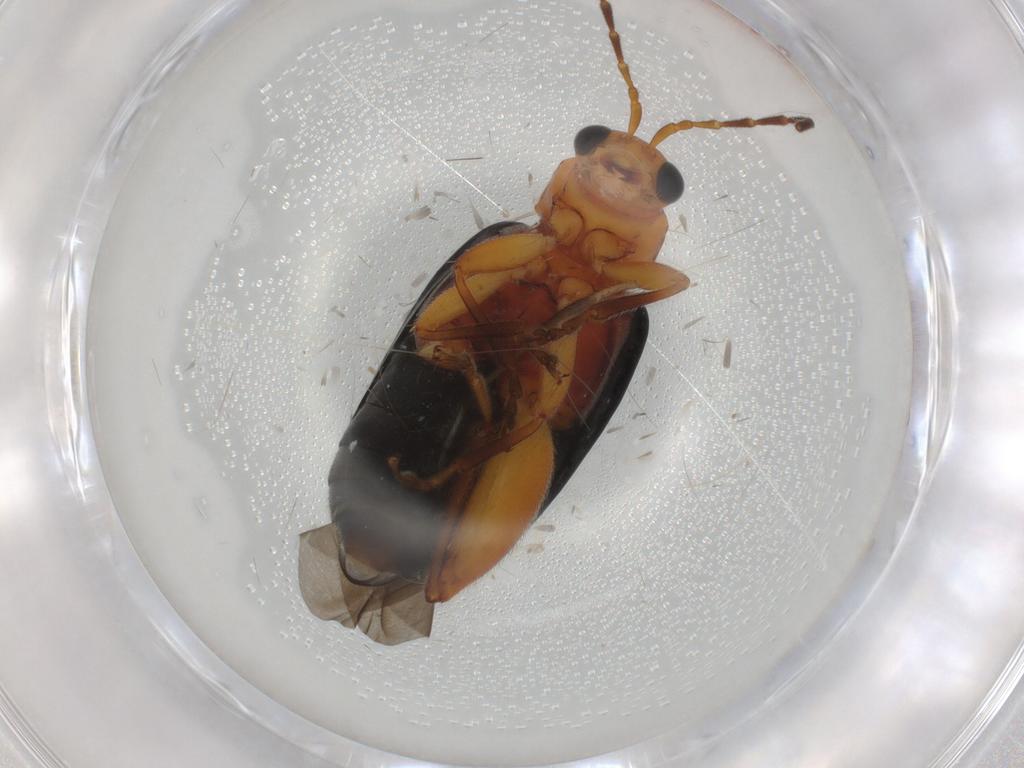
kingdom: Animalia
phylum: Arthropoda
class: Insecta
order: Coleoptera
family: Chrysomelidae
